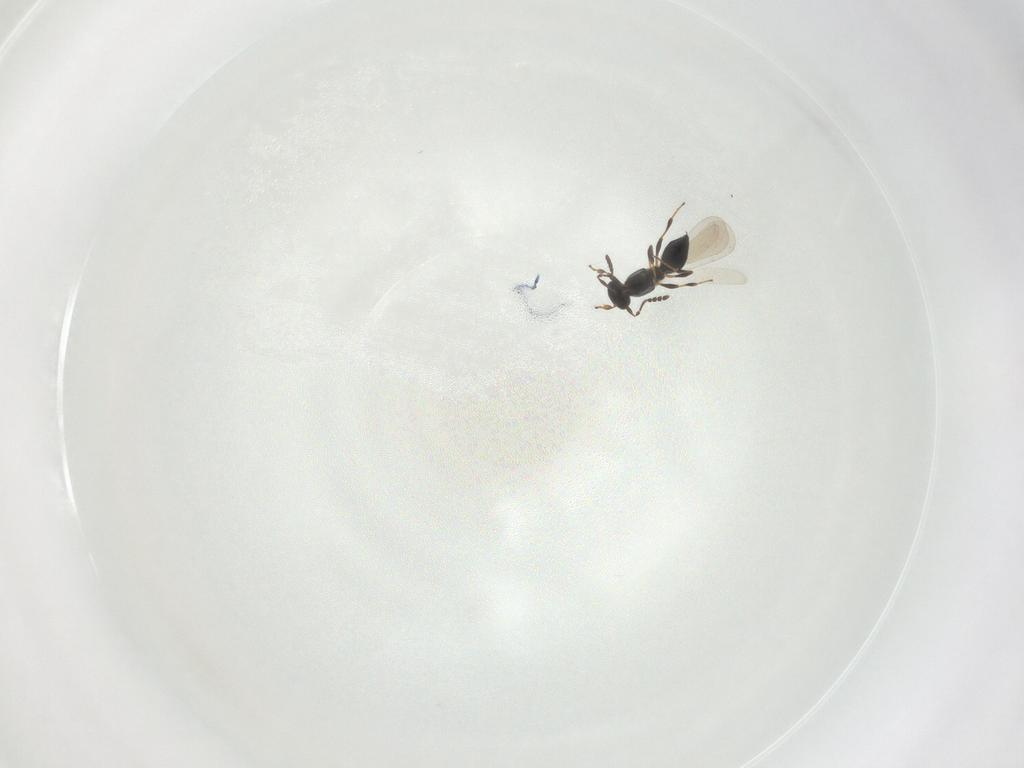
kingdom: Animalia
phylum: Arthropoda
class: Insecta
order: Hymenoptera
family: Platygastridae
